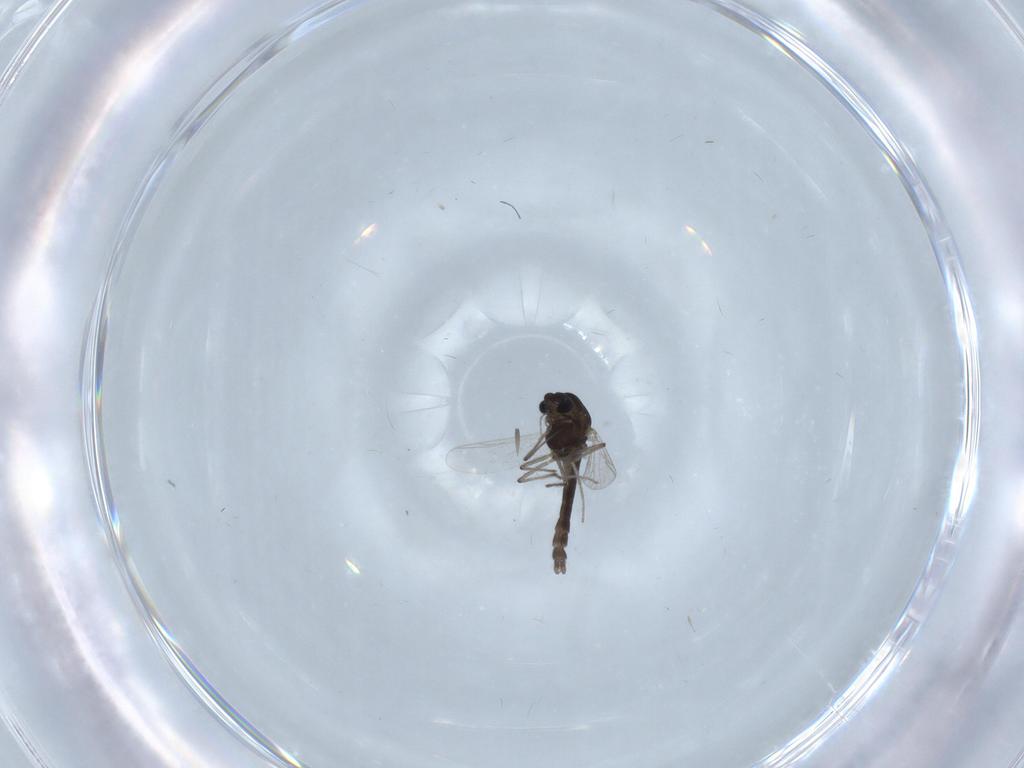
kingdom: Animalia
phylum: Arthropoda
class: Insecta
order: Diptera
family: Chironomidae
